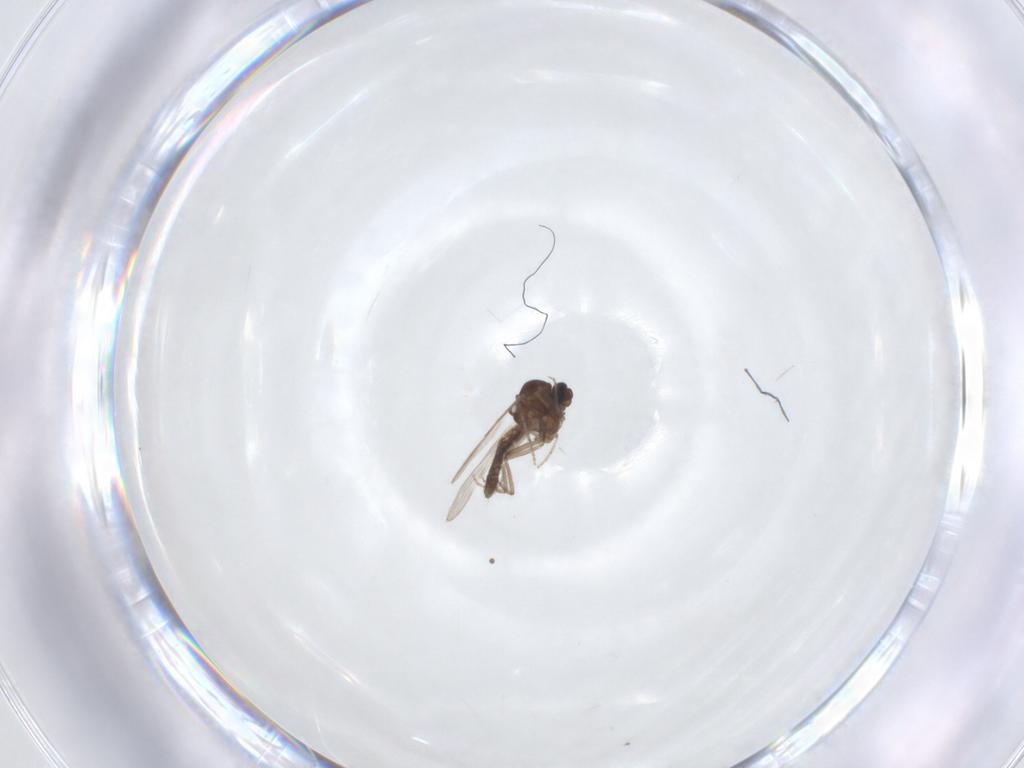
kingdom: Animalia
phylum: Arthropoda
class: Insecta
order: Diptera
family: Ceratopogonidae
